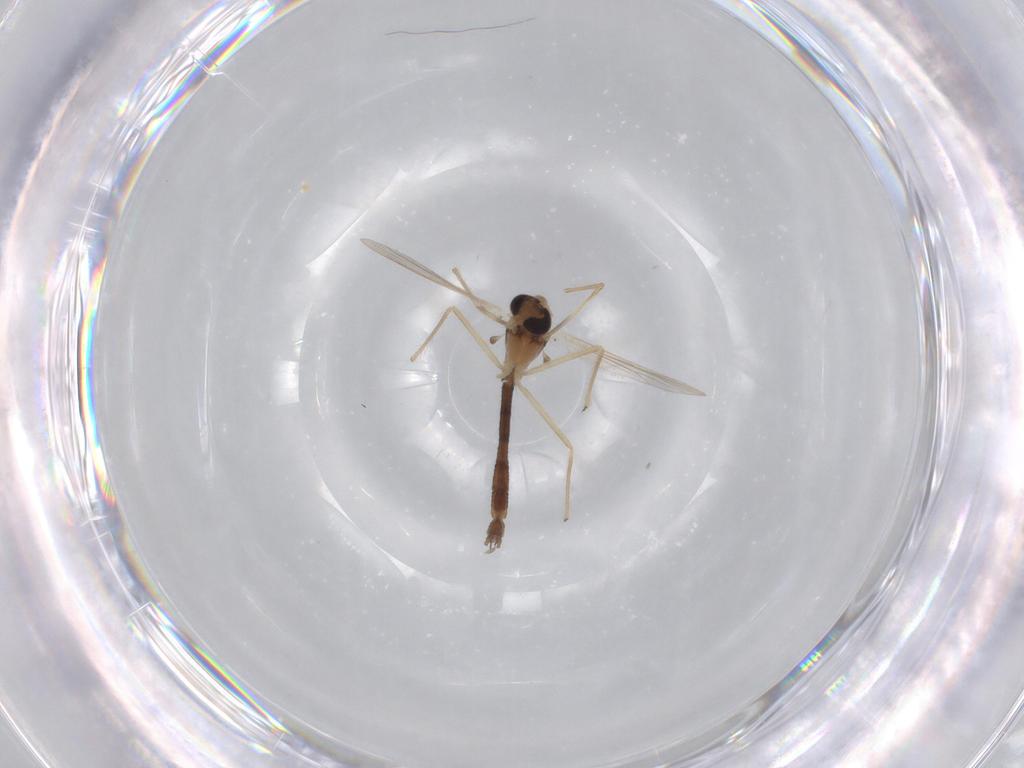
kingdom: Animalia
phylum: Arthropoda
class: Insecta
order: Diptera
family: Chironomidae
